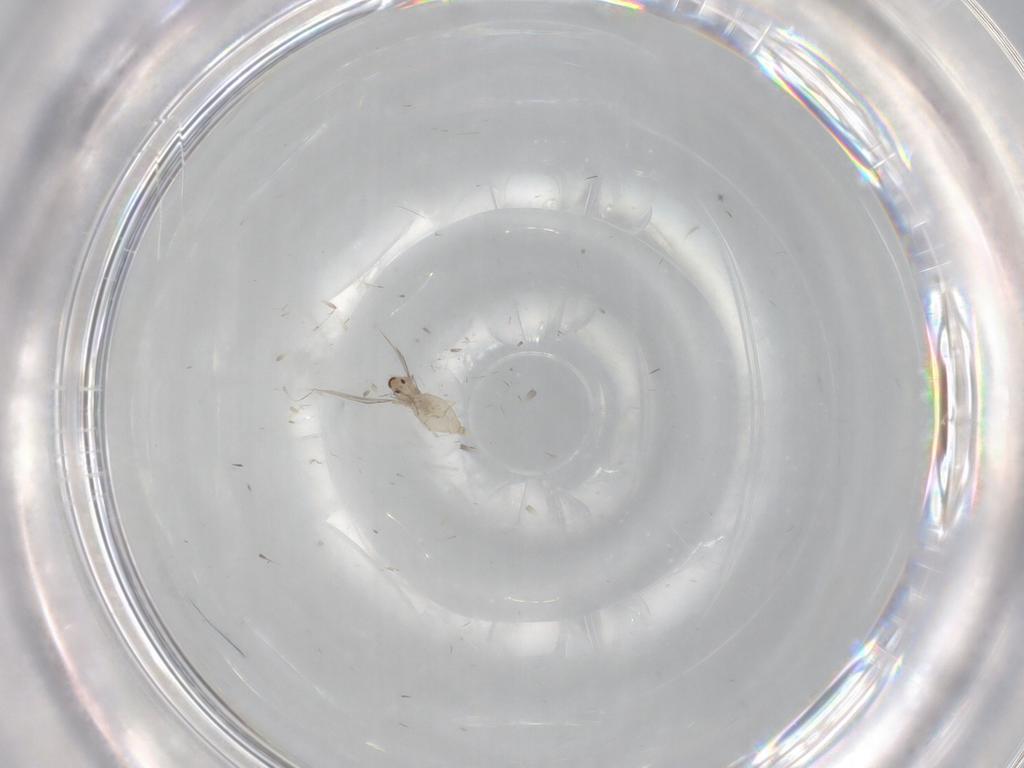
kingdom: Animalia
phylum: Arthropoda
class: Insecta
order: Diptera
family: Cecidomyiidae
